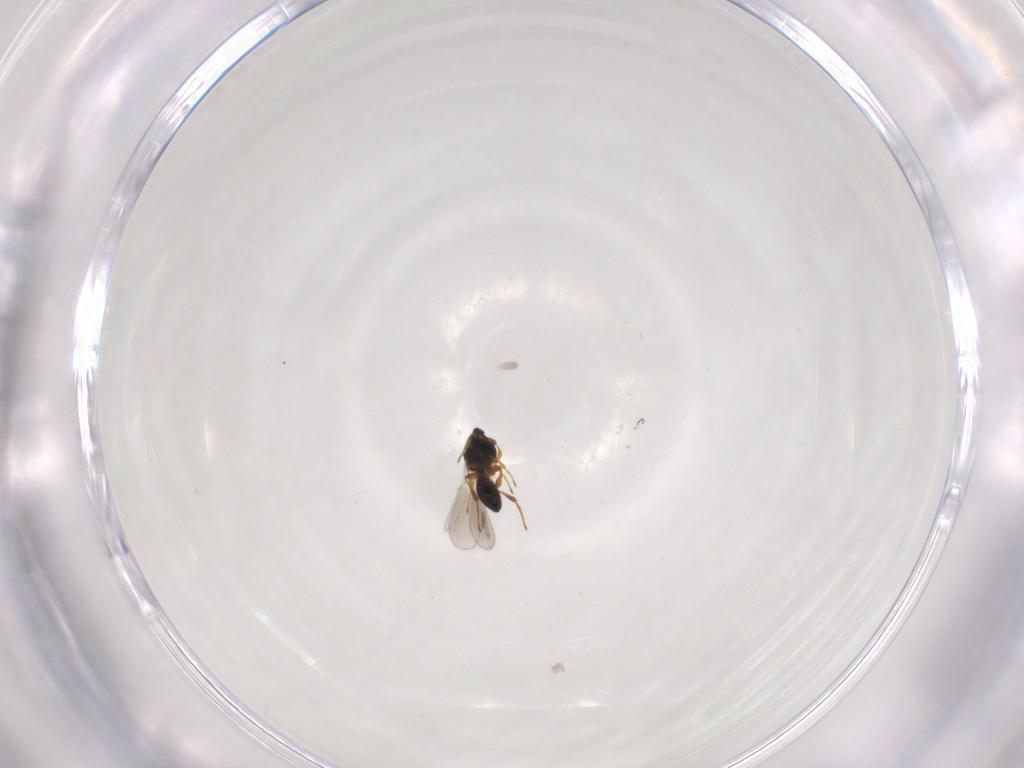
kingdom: Animalia
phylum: Arthropoda
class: Insecta
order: Hymenoptera
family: Platygastridae
